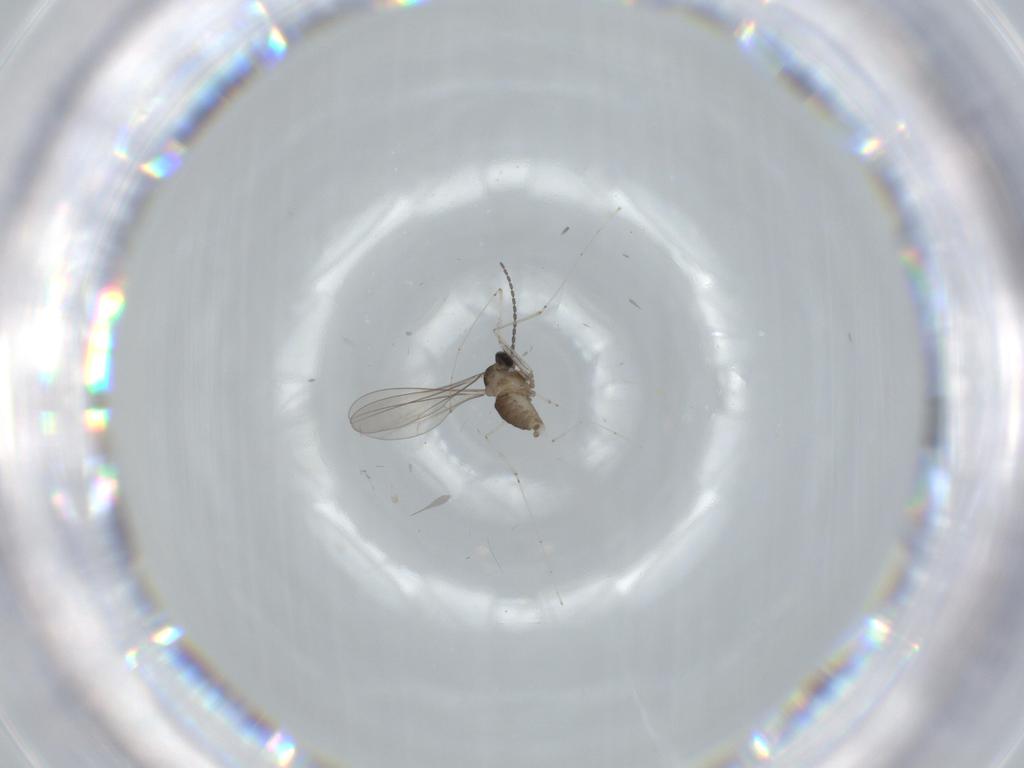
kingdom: Animalia
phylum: Arthropoda
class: Insecta
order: Diptera
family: Cecidomyiidae
